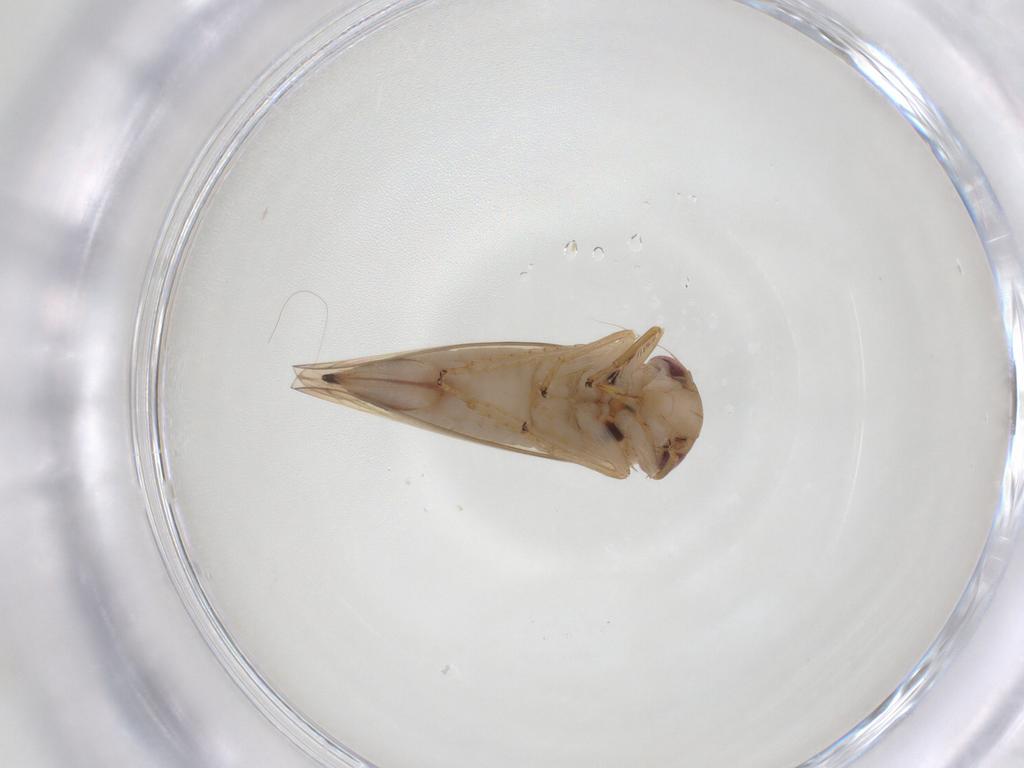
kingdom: Animalia
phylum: Arthropoda
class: Insecta
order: Hemiptera
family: Cicadellidae
